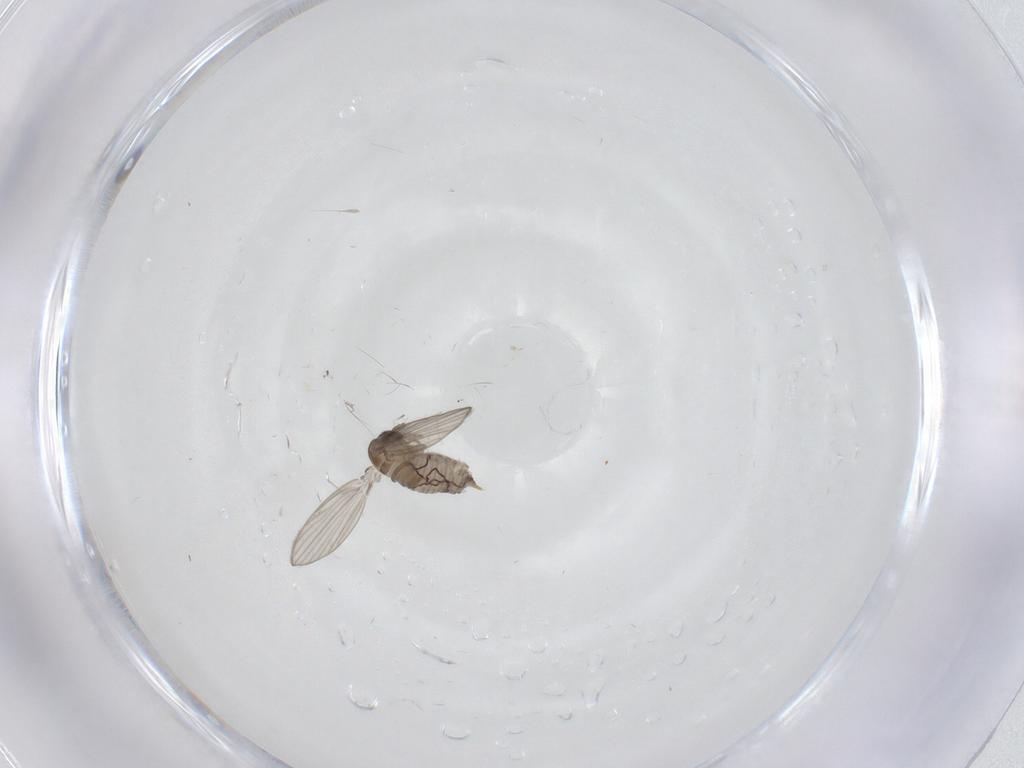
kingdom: Animalia
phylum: Arthropoda
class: Insecta
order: Diptera
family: Psychodidae
